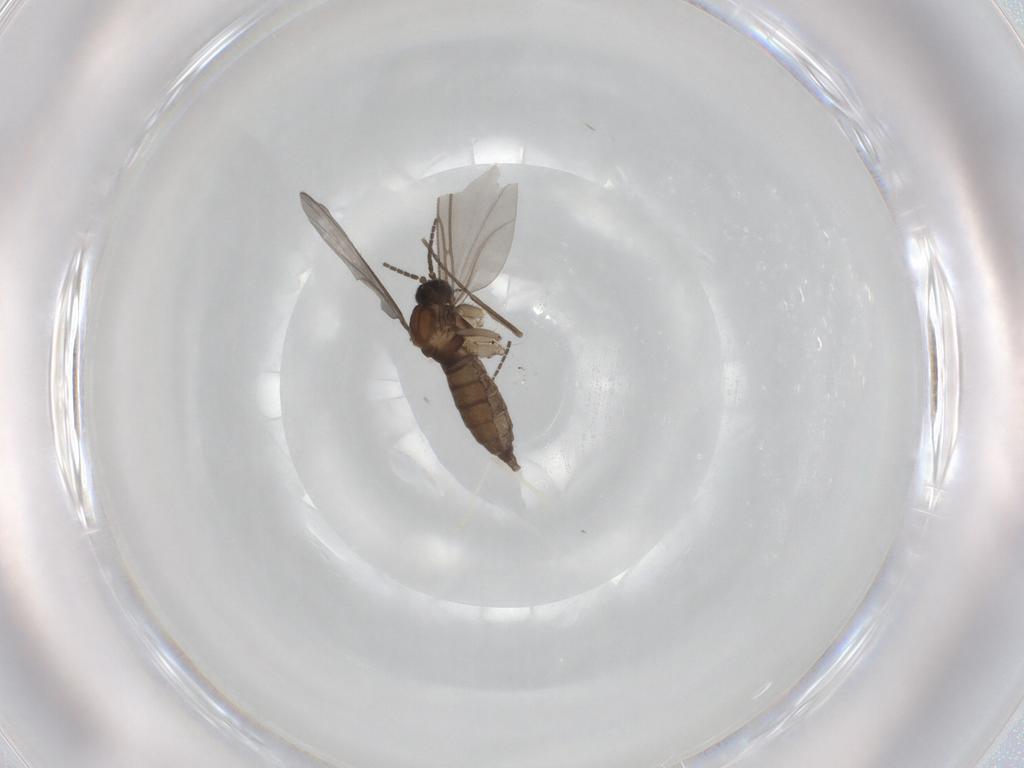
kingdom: Animalia
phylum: Arthropoda
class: Insecta
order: Diptera
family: Sciaridae
